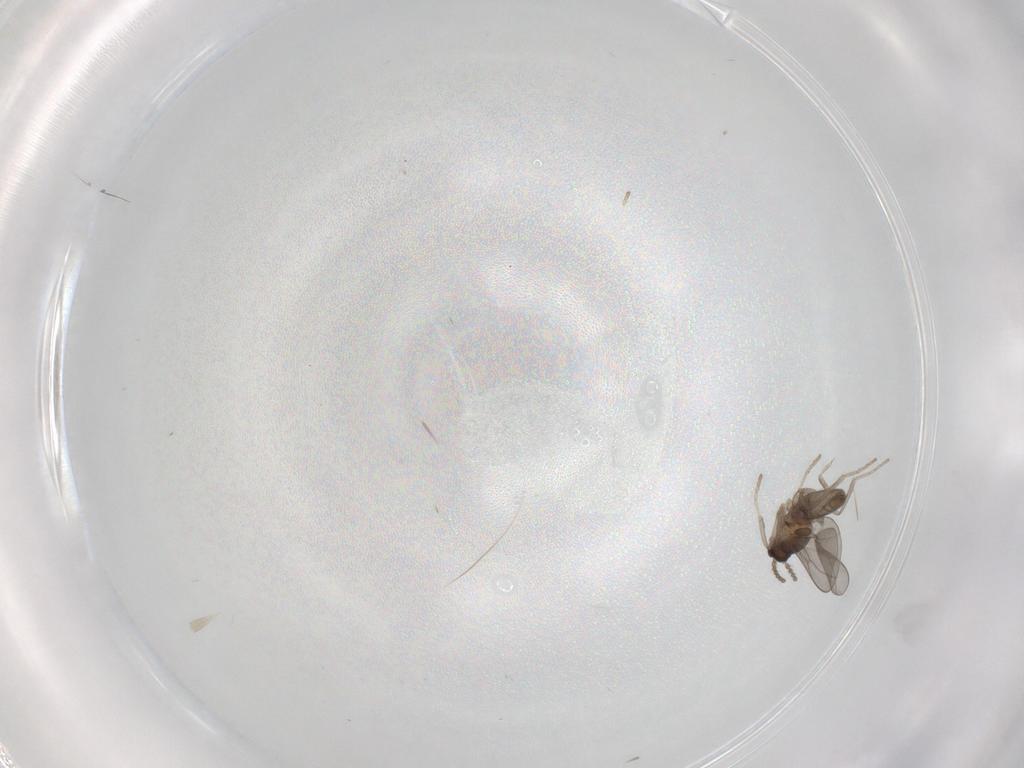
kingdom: Animalia
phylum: Arthropoda
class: Insecta
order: Diptera
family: Cecidomyiidae
